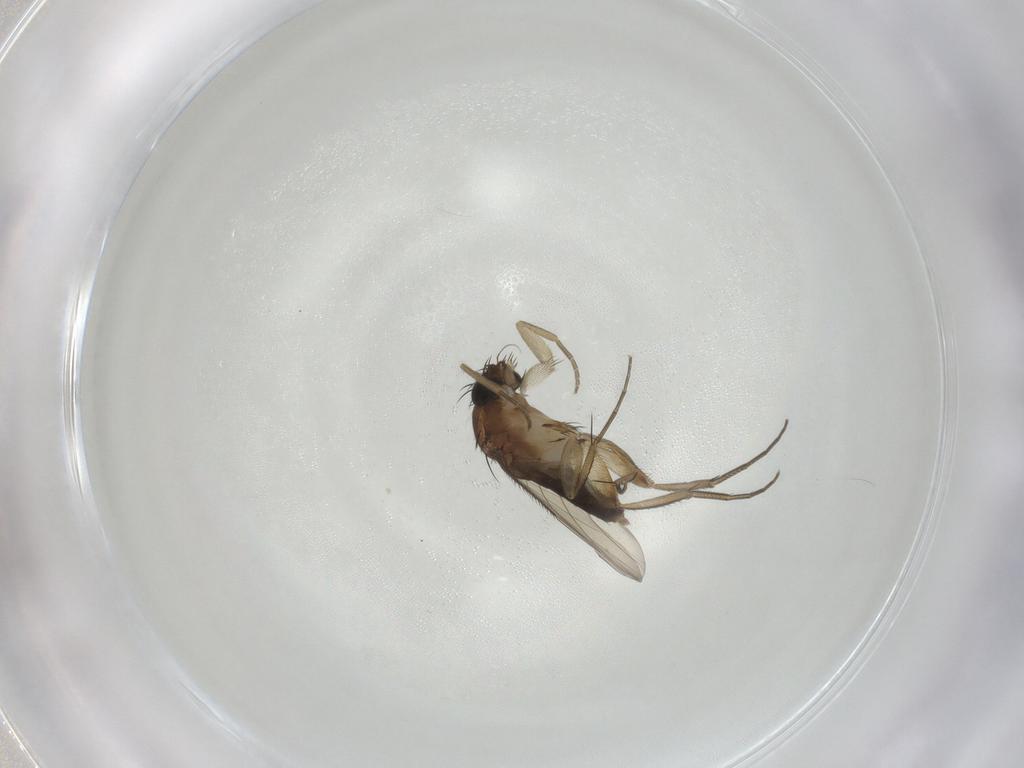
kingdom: Animalia
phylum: Arthropoda
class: Insecta
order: Diptera
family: Phoridae
